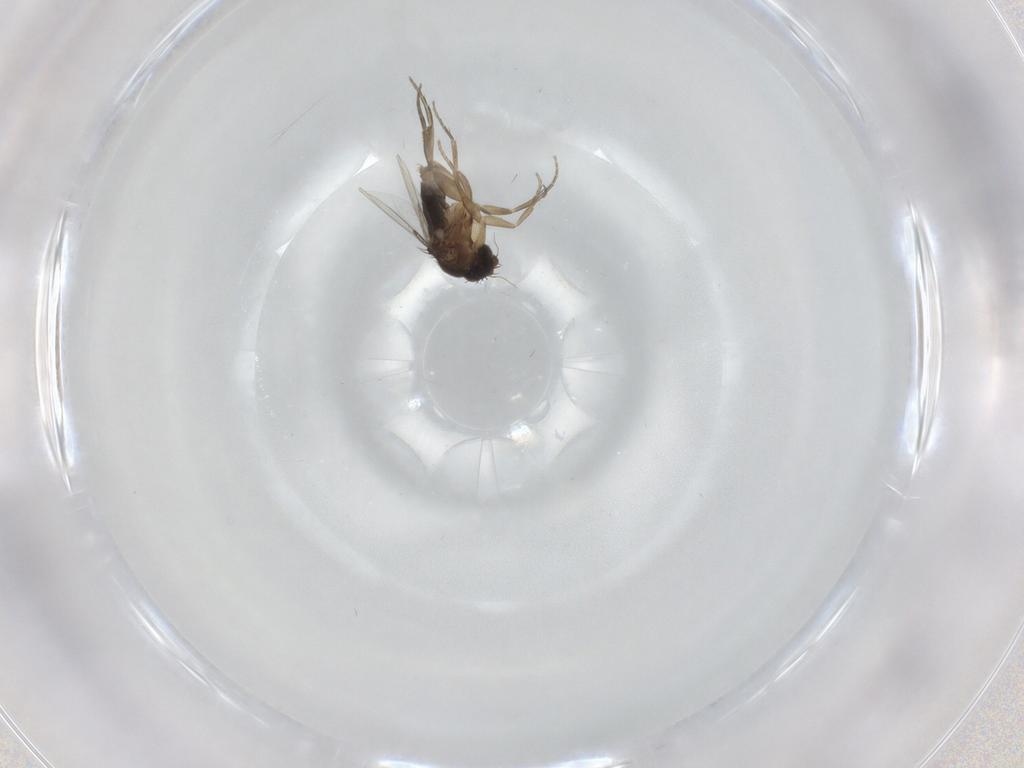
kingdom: Animalia
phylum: Arthropoda
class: Insecta
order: Diptera
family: Phoridae
